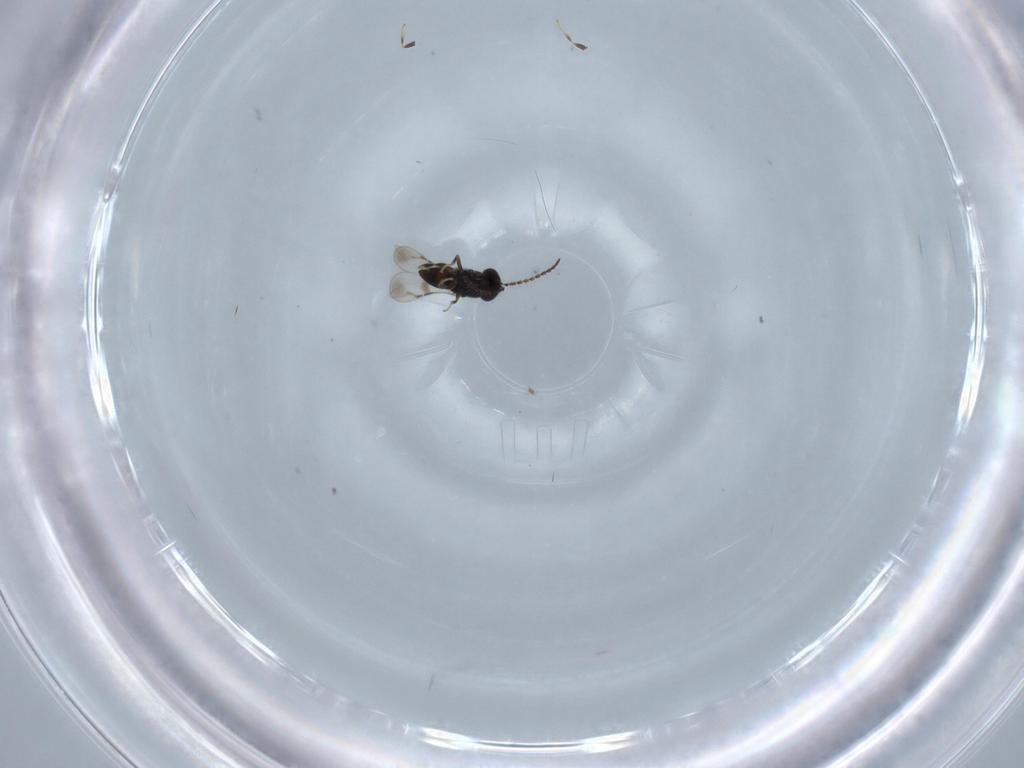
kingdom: Animalia
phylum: Arthropoda
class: Insecta
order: Hymenoptera
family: Ceraphronidae
